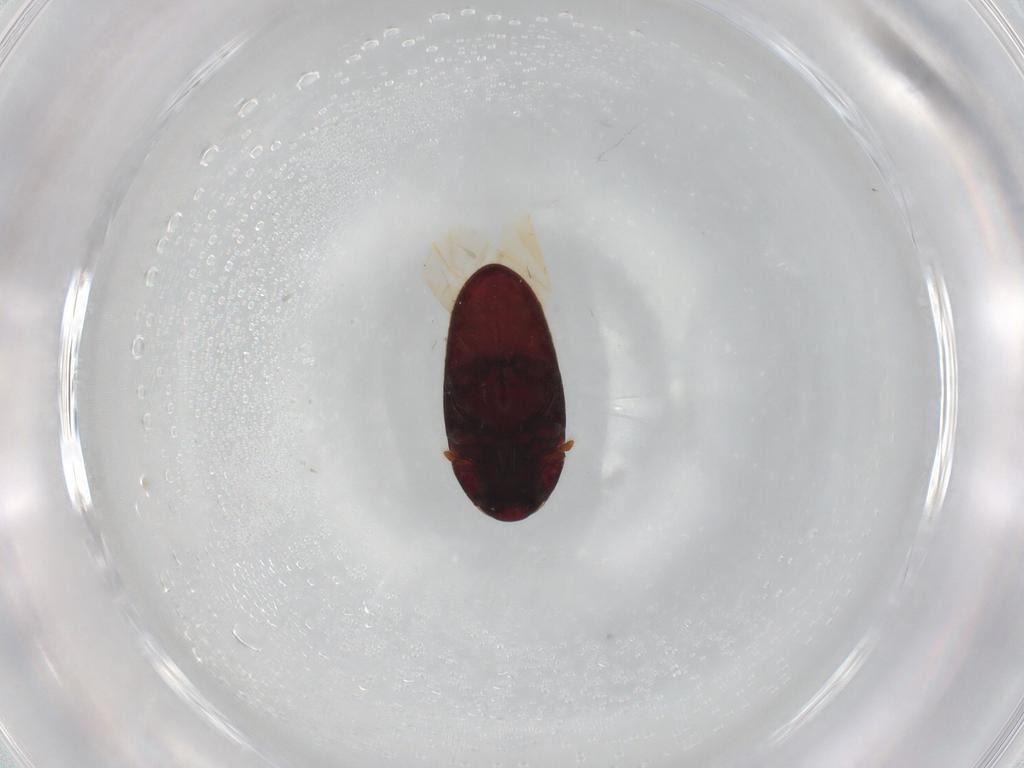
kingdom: Animalia
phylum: Arthropoda
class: Insecta
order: Coleoptera
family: Throscidae
